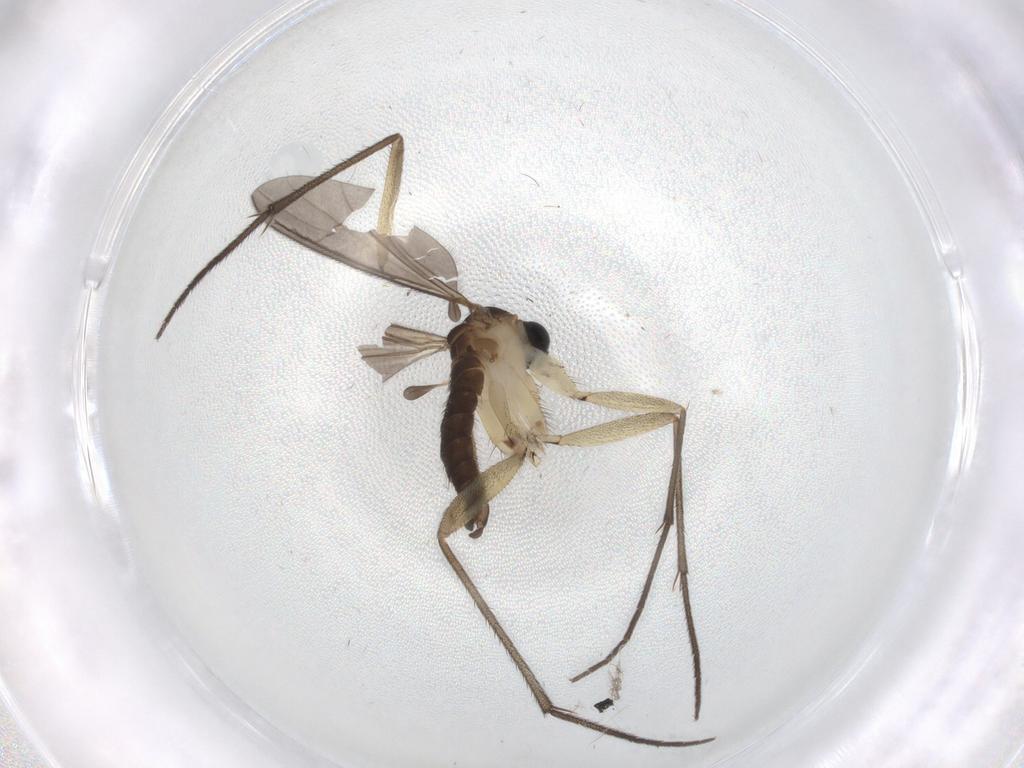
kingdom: Animalia
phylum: Arthropoda
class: Insecta
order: Diptera
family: Sciaridae
